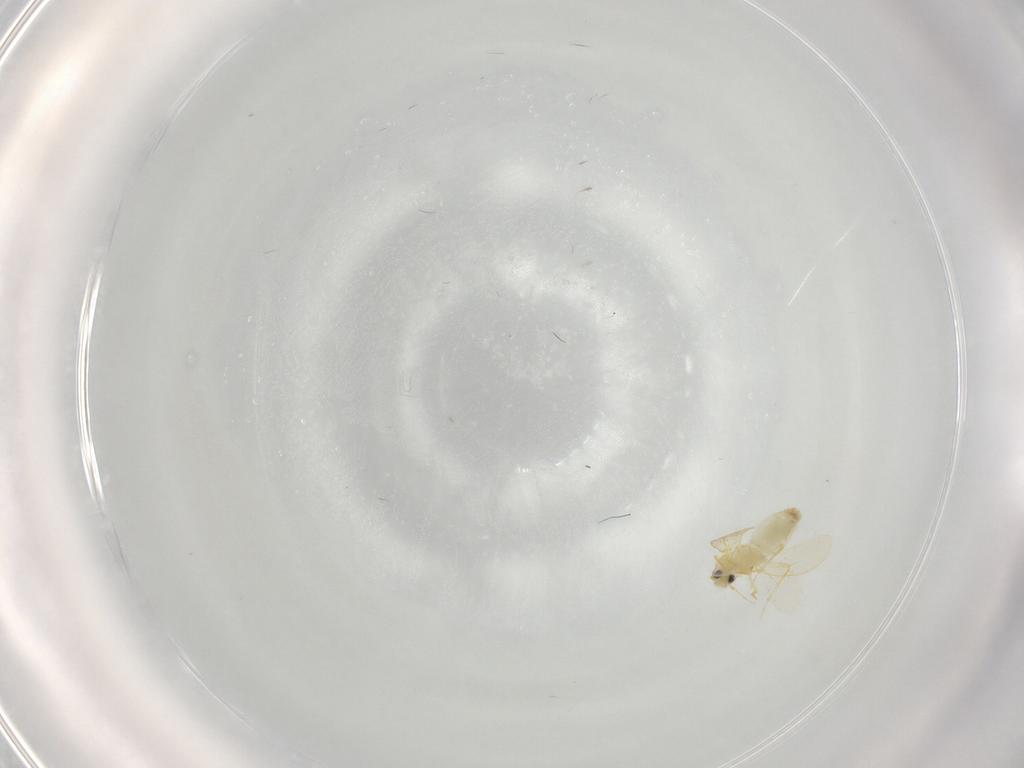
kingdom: Animalia
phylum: Arthropoda
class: Insecta
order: Hemiptera
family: Aleyrodidae
